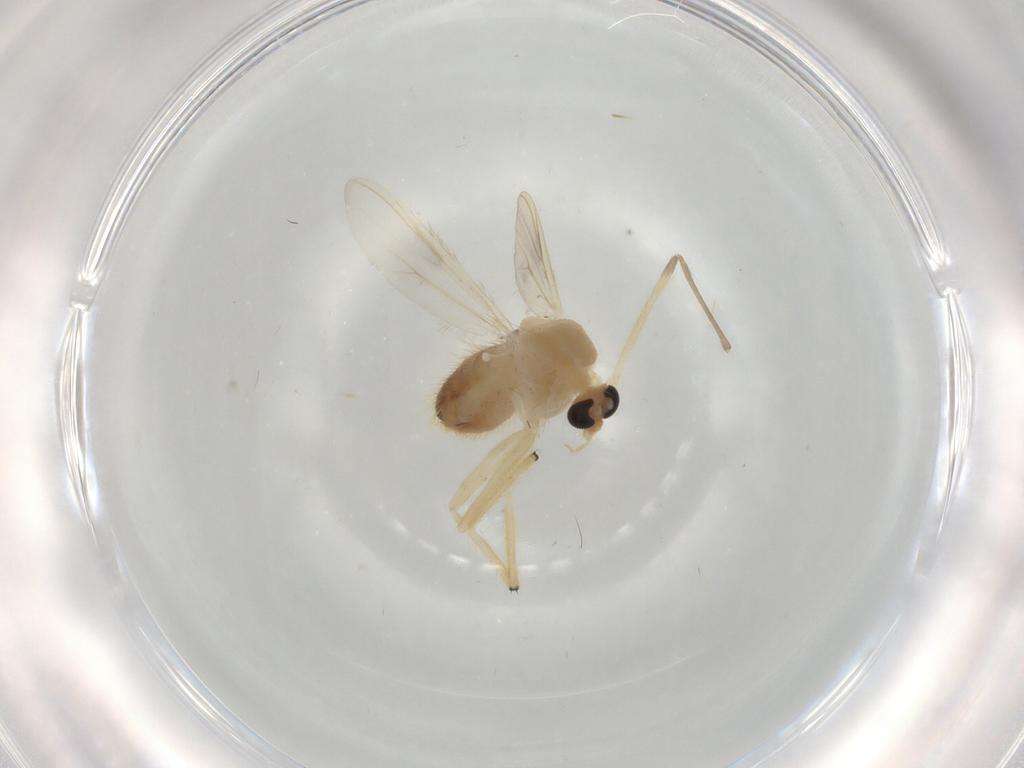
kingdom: Animalia
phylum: Arthropoda
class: Insecta
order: Diptera
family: Chironomidae
